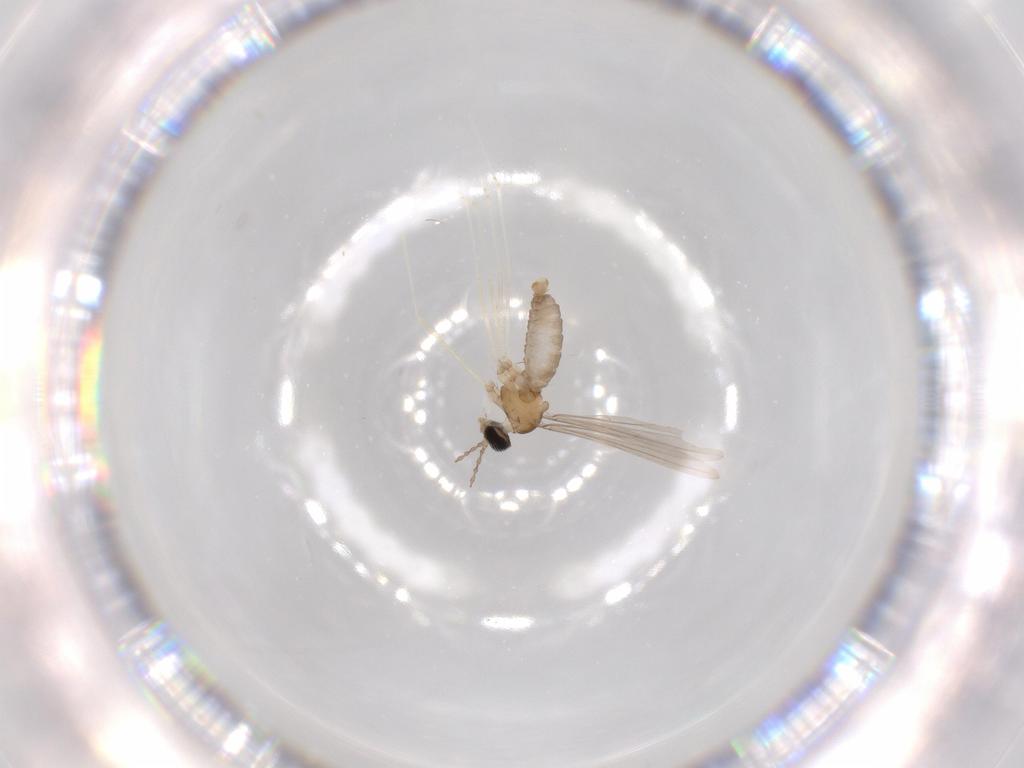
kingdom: Animalia
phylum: Arthropoda
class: Insecta
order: Diptera
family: Cecidomyiidae
